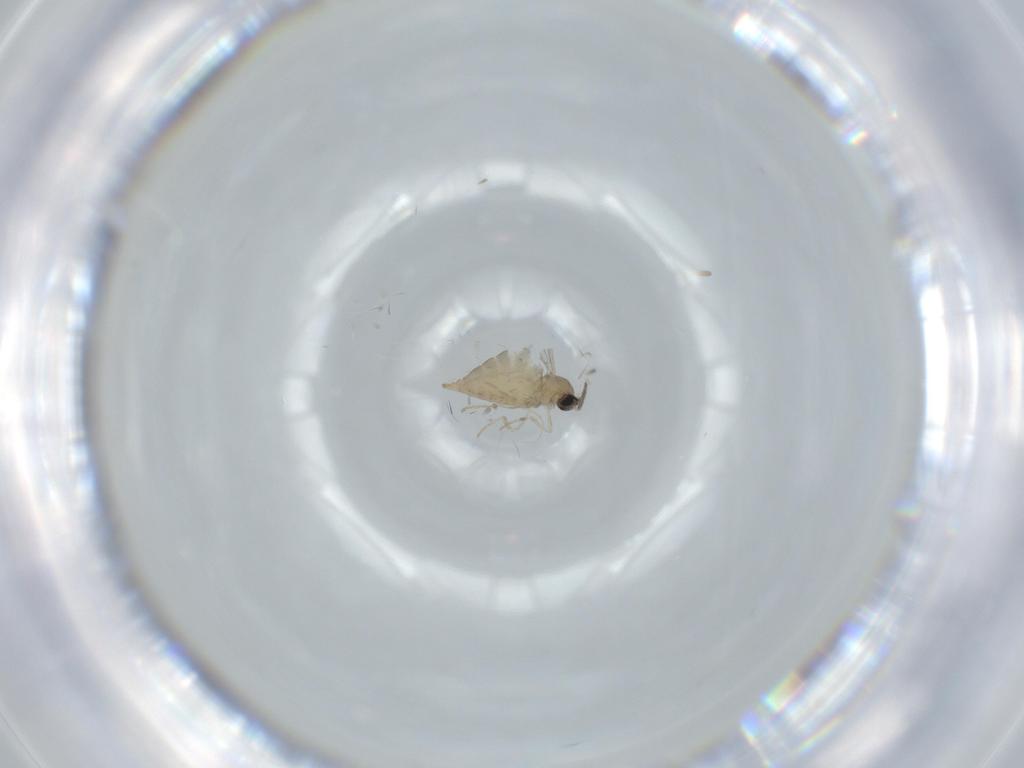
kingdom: Animalia
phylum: Arthropoda
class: Insecta
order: Diptera
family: Cecidomyiidae
